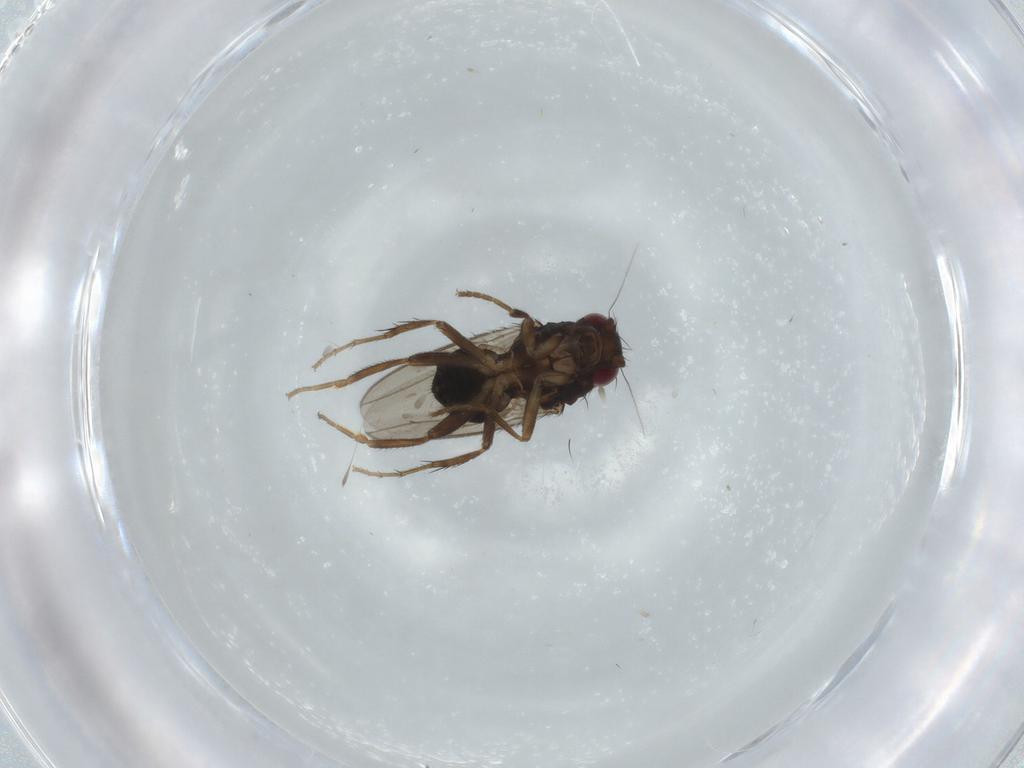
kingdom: Animalia
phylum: Arthropoda
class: Insecta
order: Diptera
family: Sphaeroceridae
